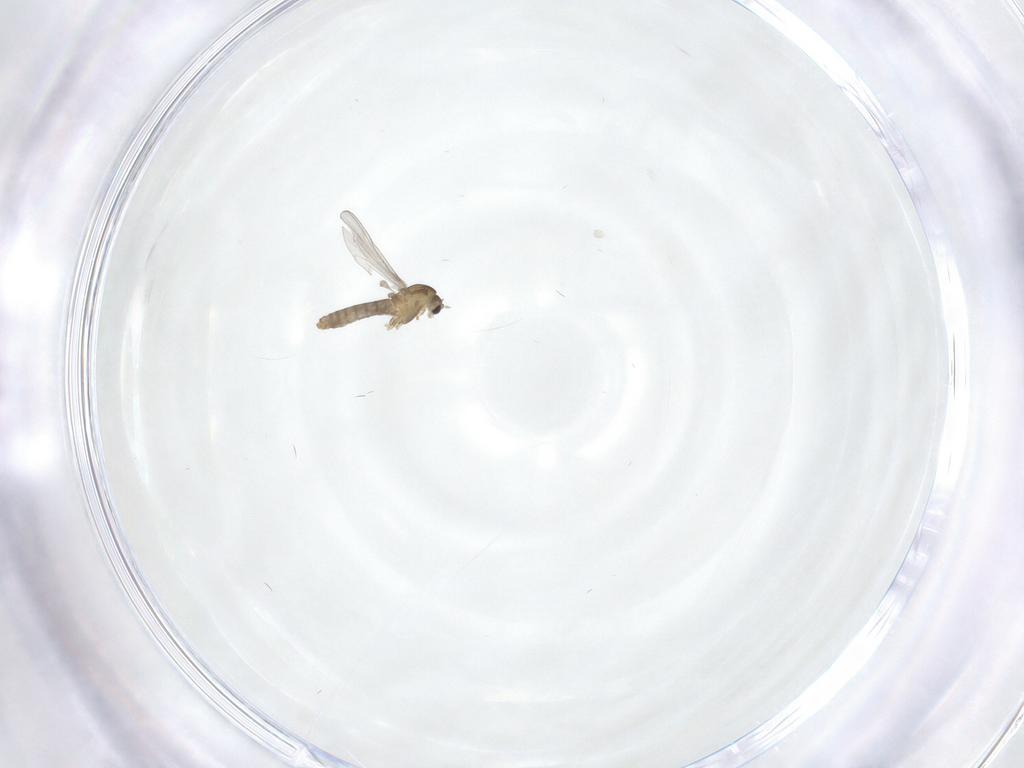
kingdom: Animalia
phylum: Arthropoda
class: Insecta
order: Diptera
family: Chironomidae
